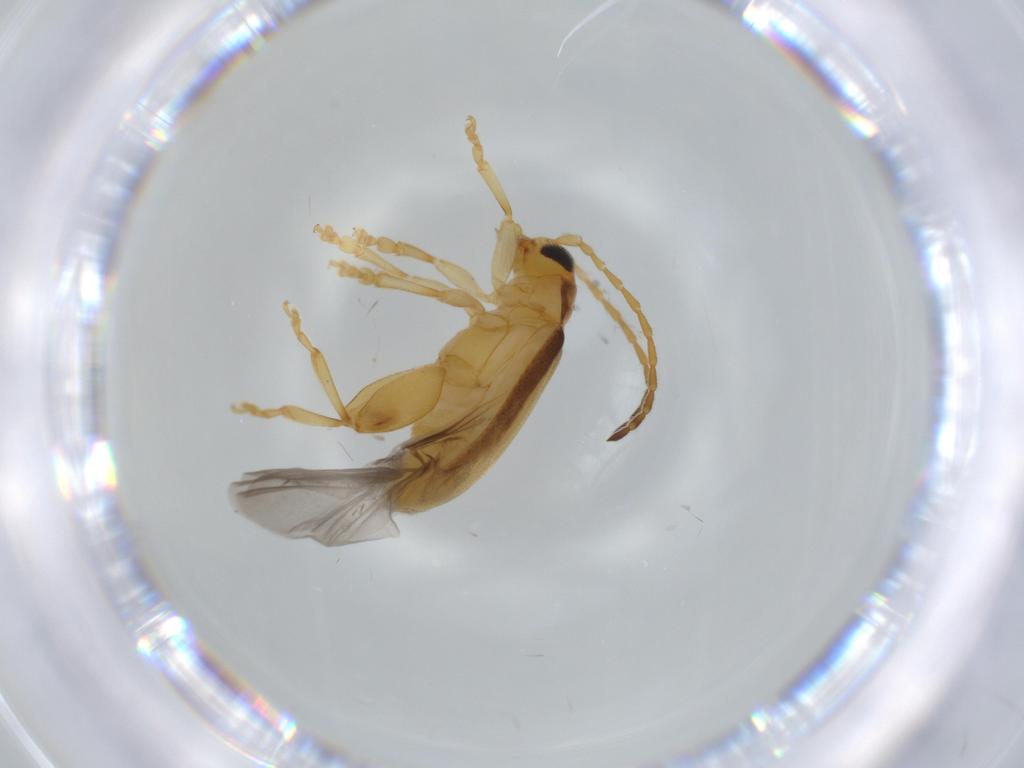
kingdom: Animalia
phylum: Arthropoda
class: Insecta
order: Coleoptera
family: Chrysomelidae
